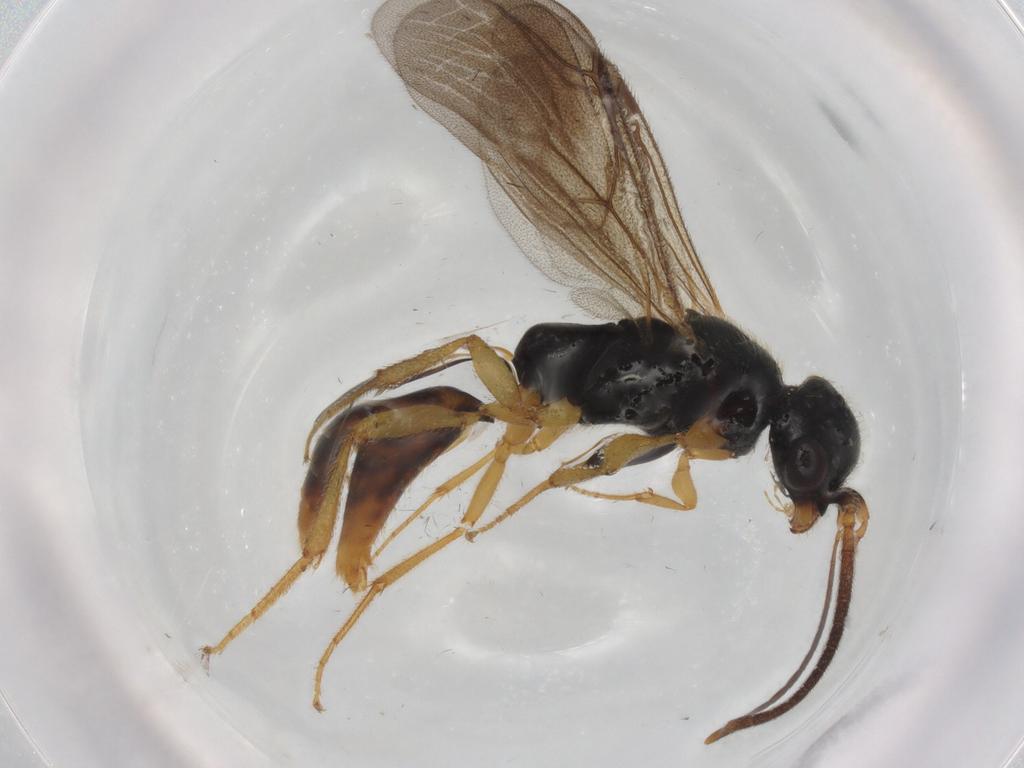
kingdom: Animalia
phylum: Arthropoda
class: Insecta
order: Hymenoptera
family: Bethylidae
